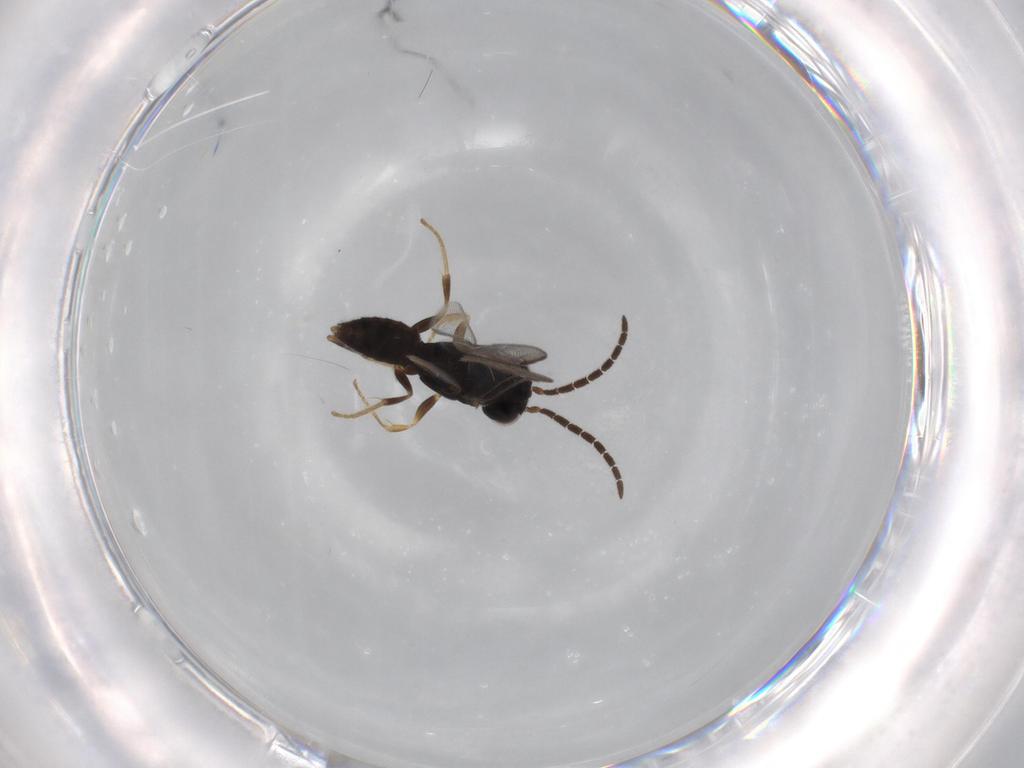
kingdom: Animalia
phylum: Arthropoda
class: Insecta
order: Hymenoptera
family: Dryinidae
